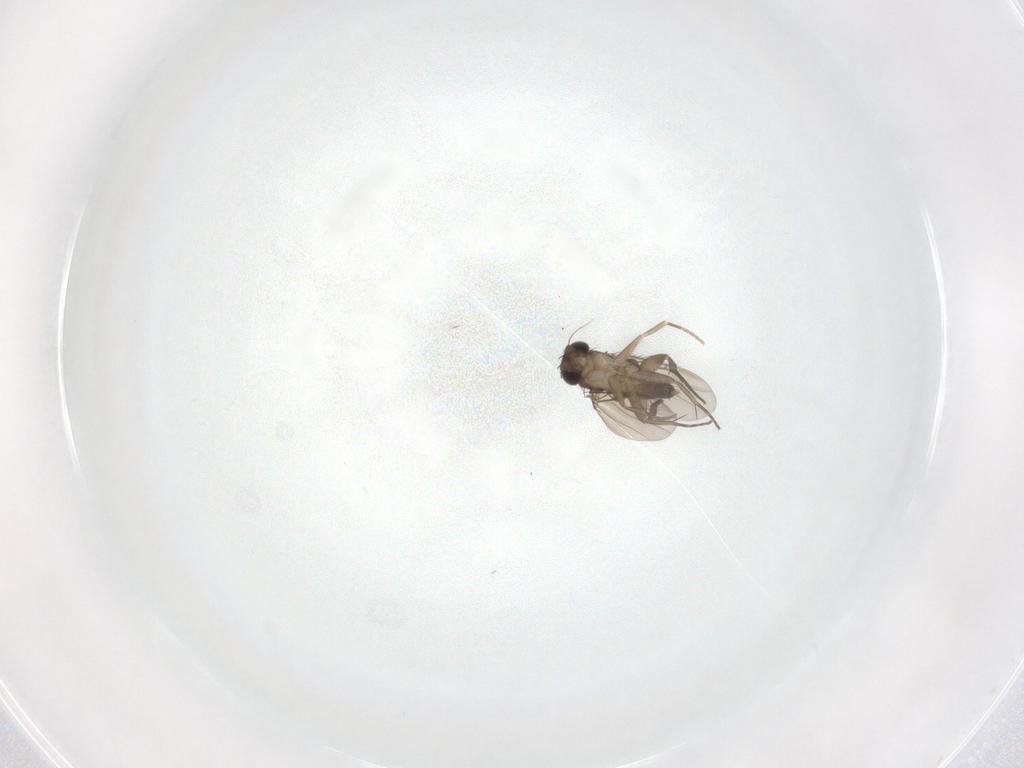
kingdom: Animalia
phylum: Arthropoda
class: Insecta
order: Diptera
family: Phoridae
